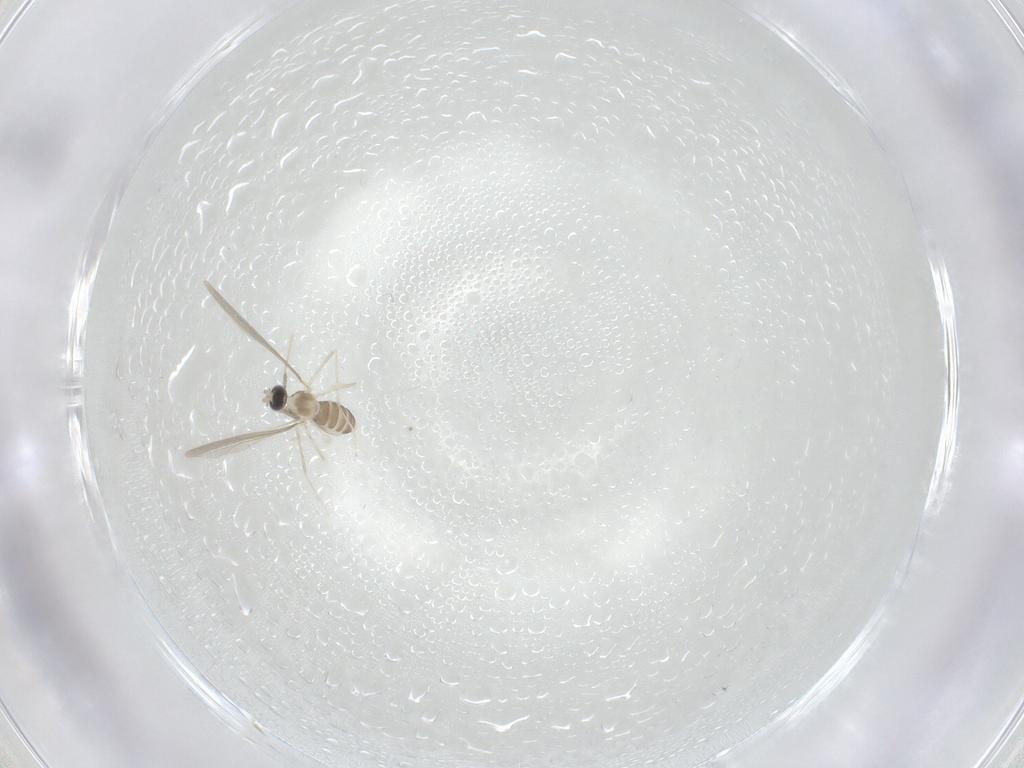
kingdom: Animalia
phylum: Arthropoda
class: Insecta
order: Diptera
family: Cecidomyiidae
